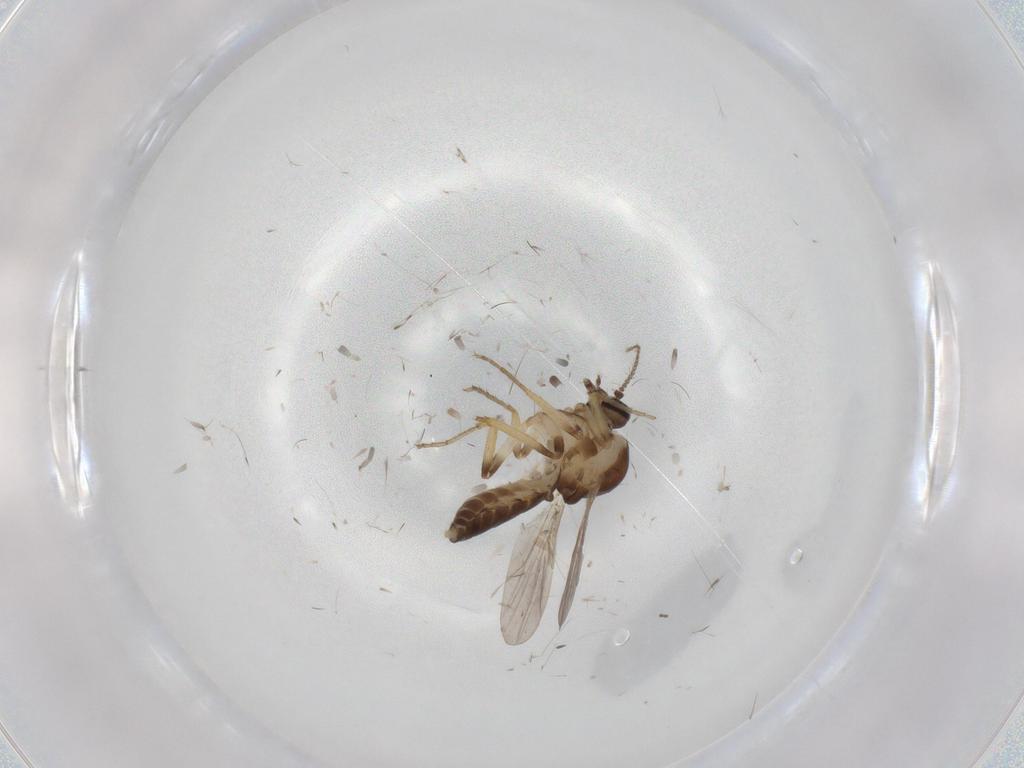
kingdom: Animalia
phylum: Arthropoda
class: Insecta
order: Diptera
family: Ceratopogonidae
